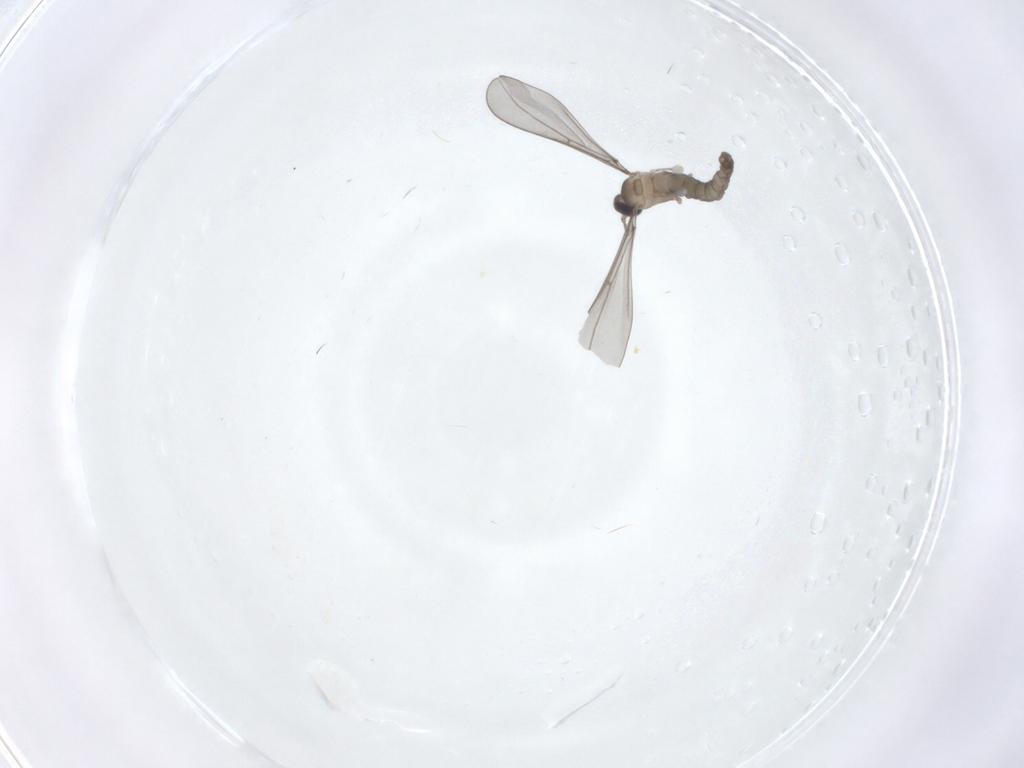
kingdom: Animalia
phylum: Arthropoda
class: Insecta
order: Diptera
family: Cecidomyiidae
